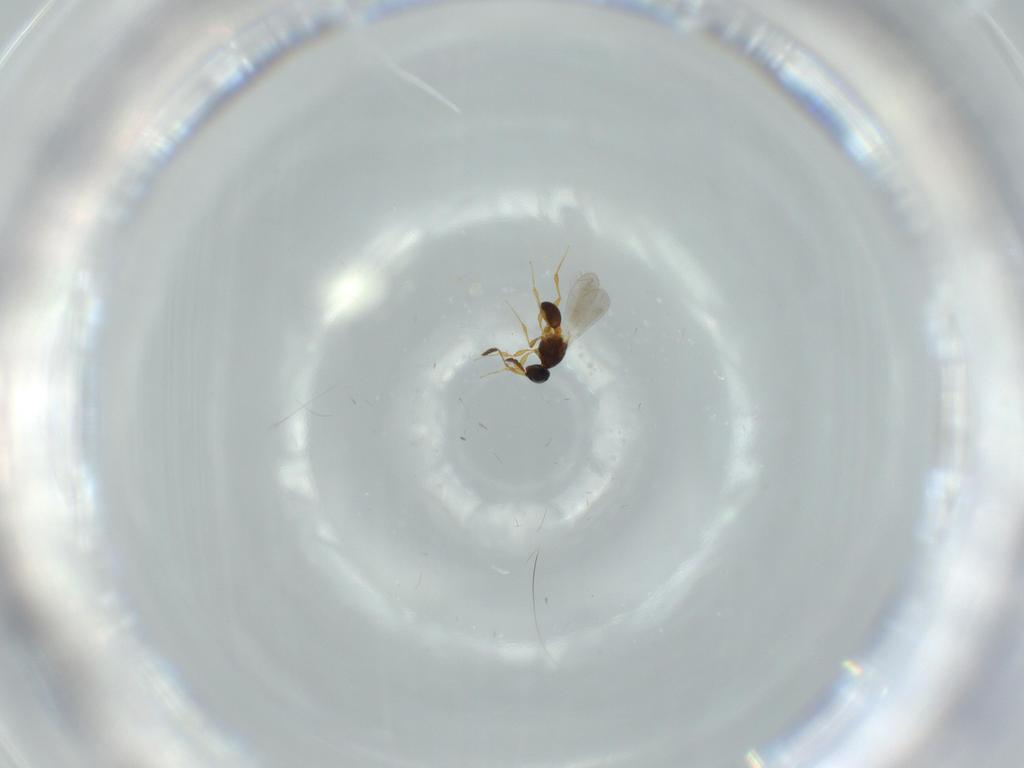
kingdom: Animalia
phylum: Arthropoda
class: Insecta
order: Hymenoptera
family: Platygastridae
